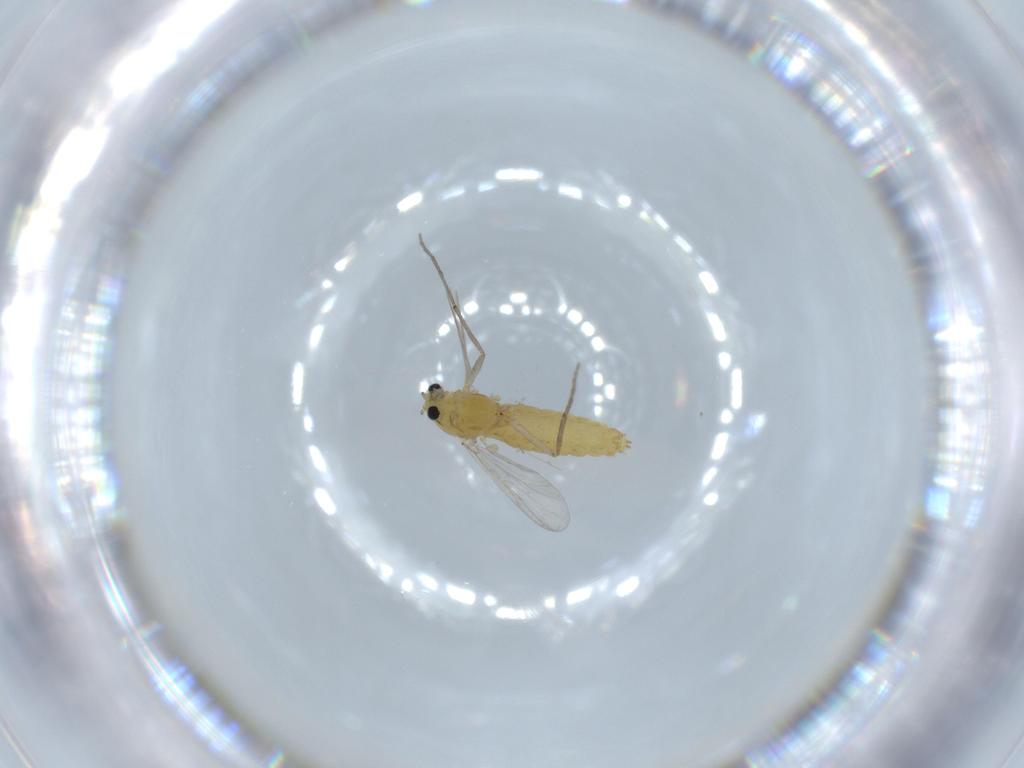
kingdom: Animalia
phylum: Arthropoda
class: Insecta
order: Diptera
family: Chironomidae
